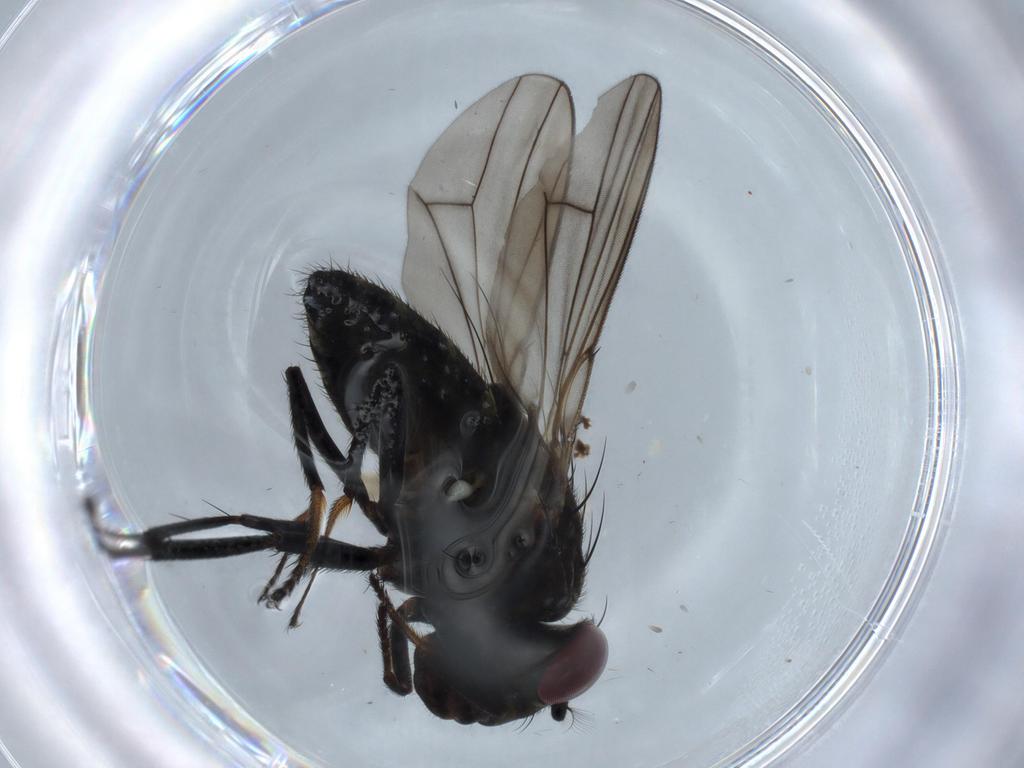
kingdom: Animalia
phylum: Arthropoda
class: Insecta
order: Diptera
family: Ephydridae
